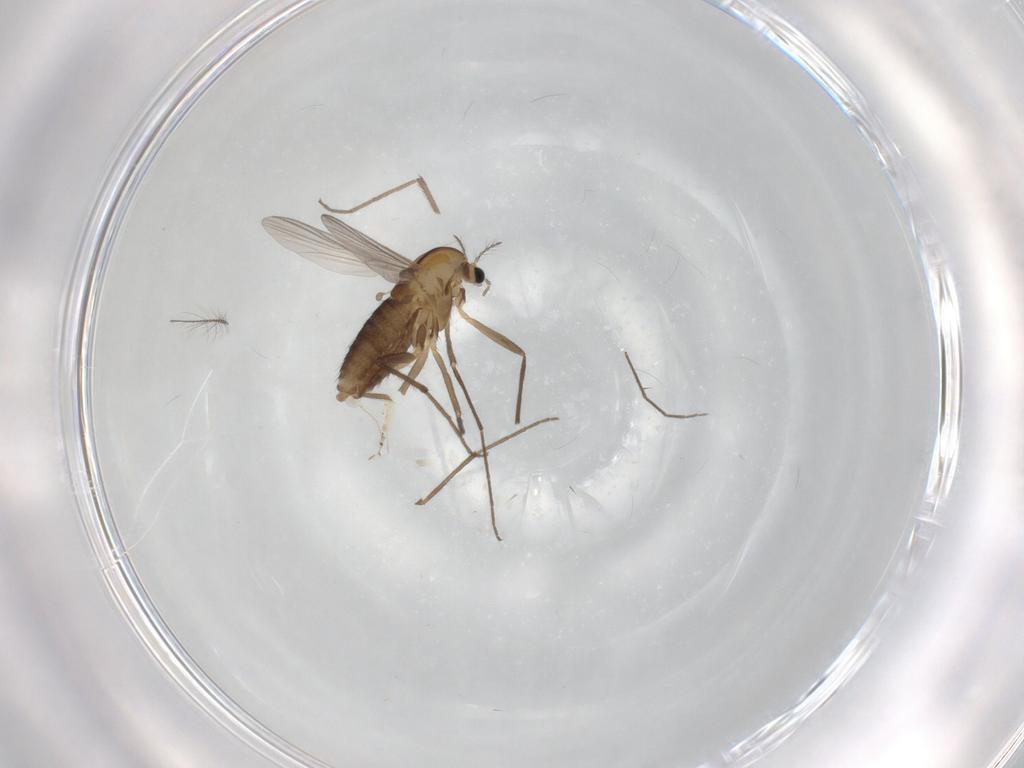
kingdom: Animalia
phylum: Arthropoda
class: Insecta
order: Diptera
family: Chironomidae
